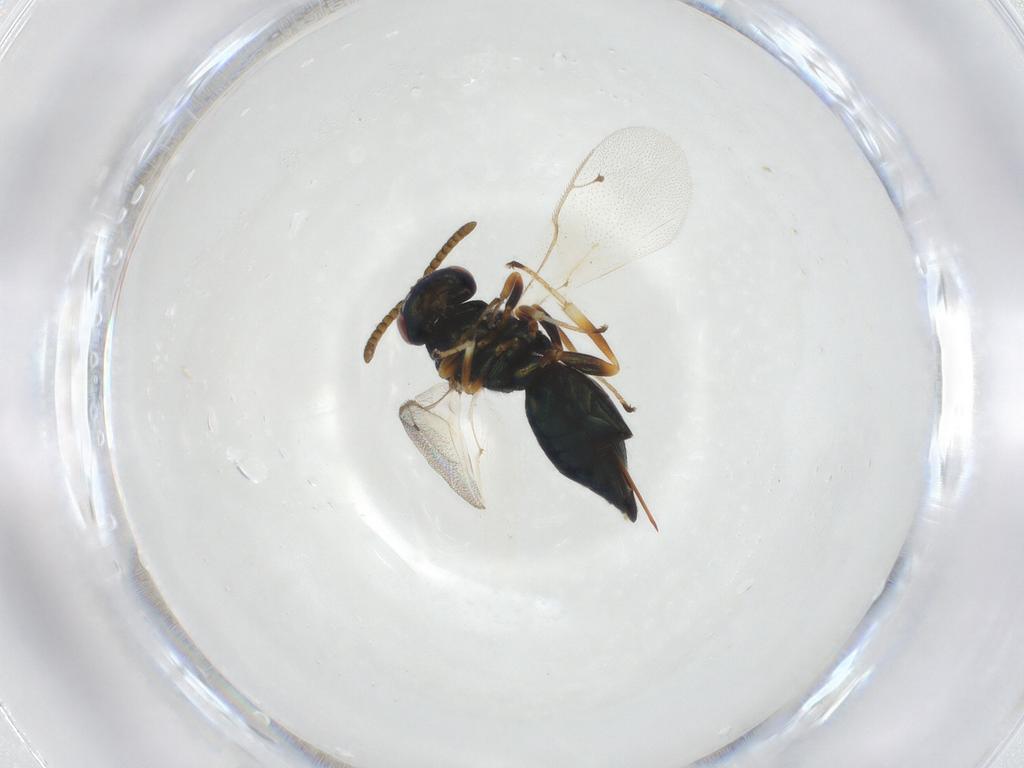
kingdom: Animalia
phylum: Arthropoda
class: Insecta
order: Hymenoptera
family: Pteromalidae
